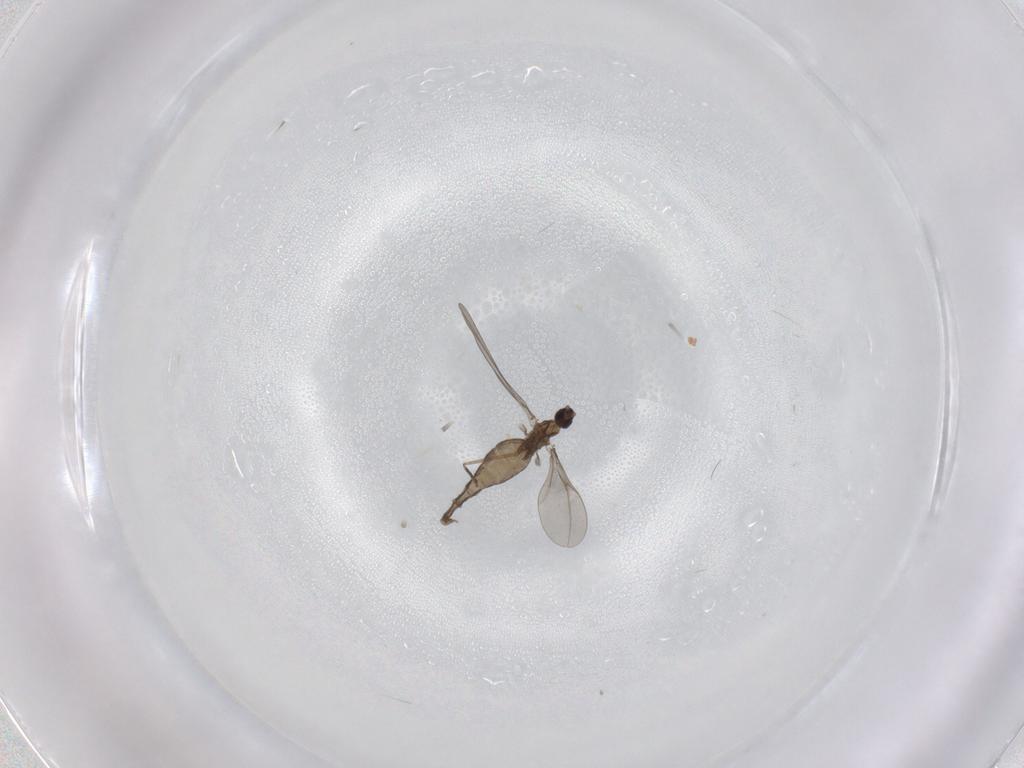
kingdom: Animalia
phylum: Arthropoda
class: Insecta
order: Diptera
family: Cecidomyiidae
